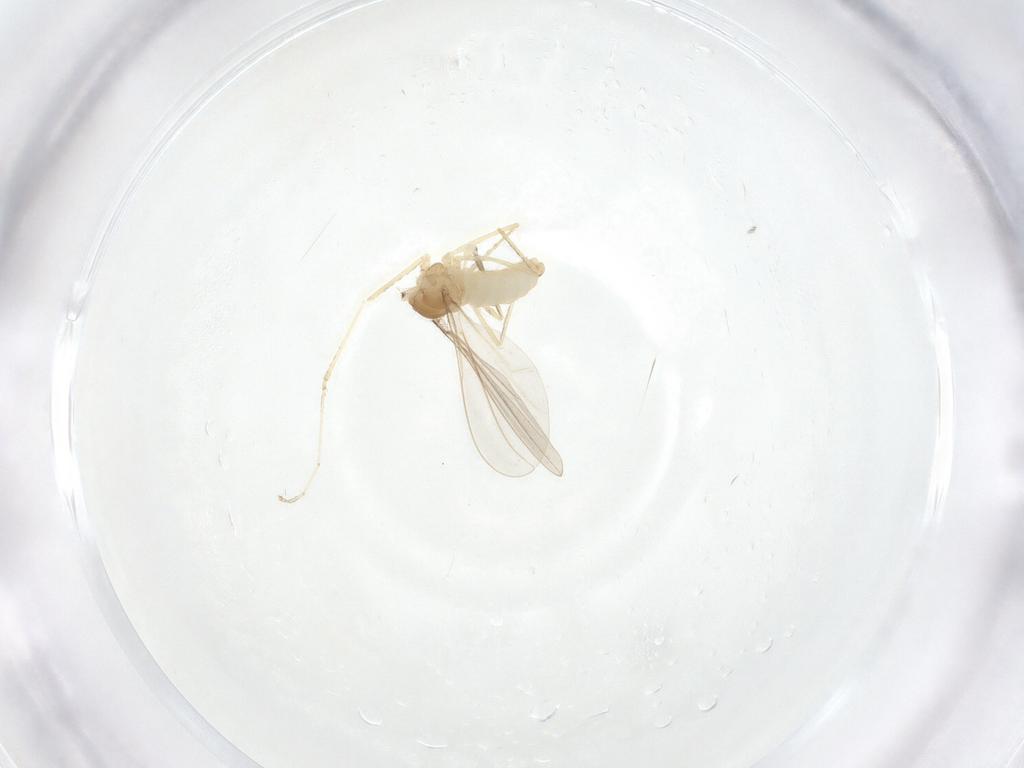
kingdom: Animalia
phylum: Arthropoda
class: Insecta
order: Diptera
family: Cecidomyiidae
